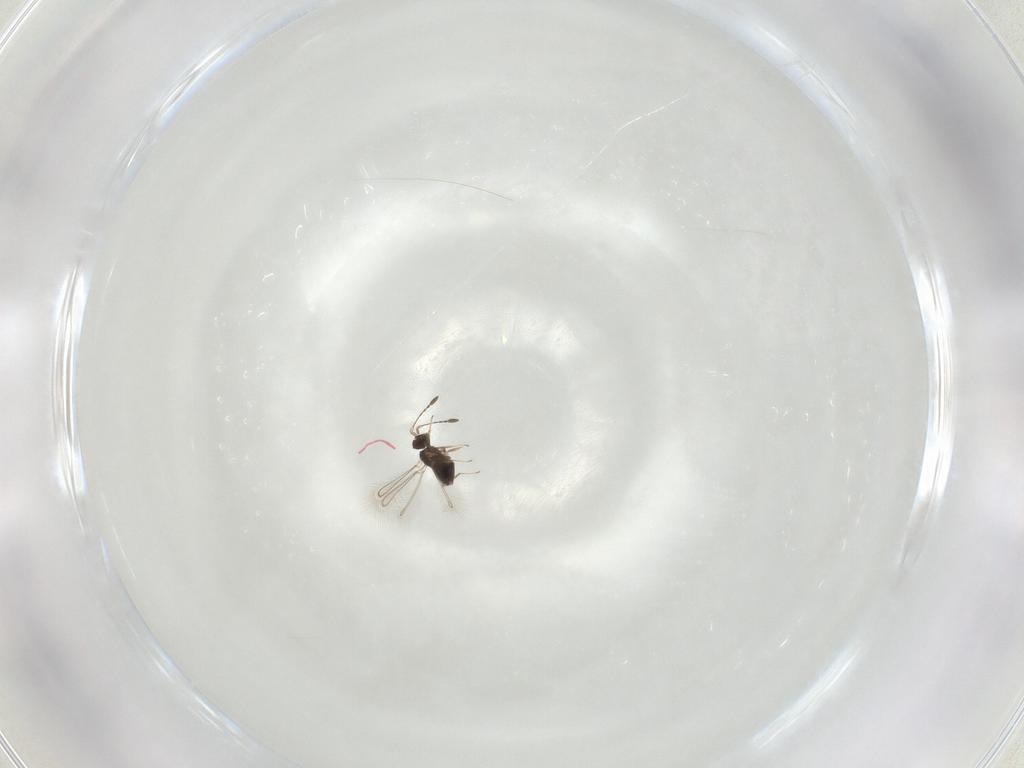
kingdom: Animalia
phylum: Arthropoda
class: Insecta
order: Hymenoptera
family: Mymaridae
